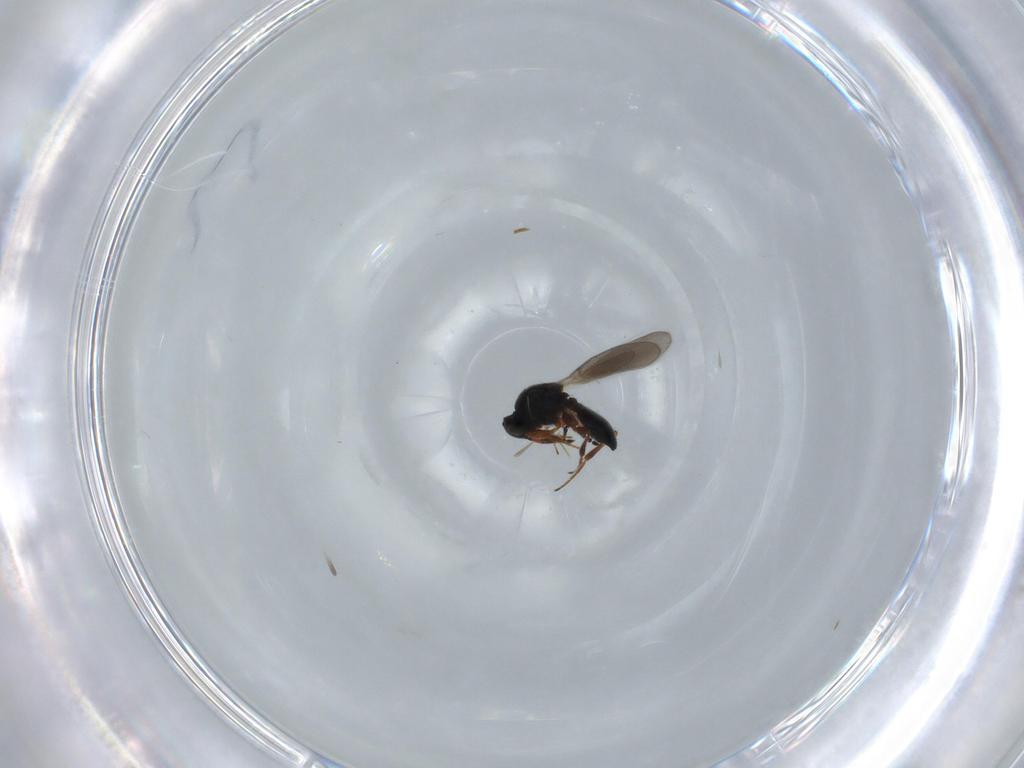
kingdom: Animalia
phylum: Arthropoda
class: Insecta
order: Hymenoptera
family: Platygastridae
